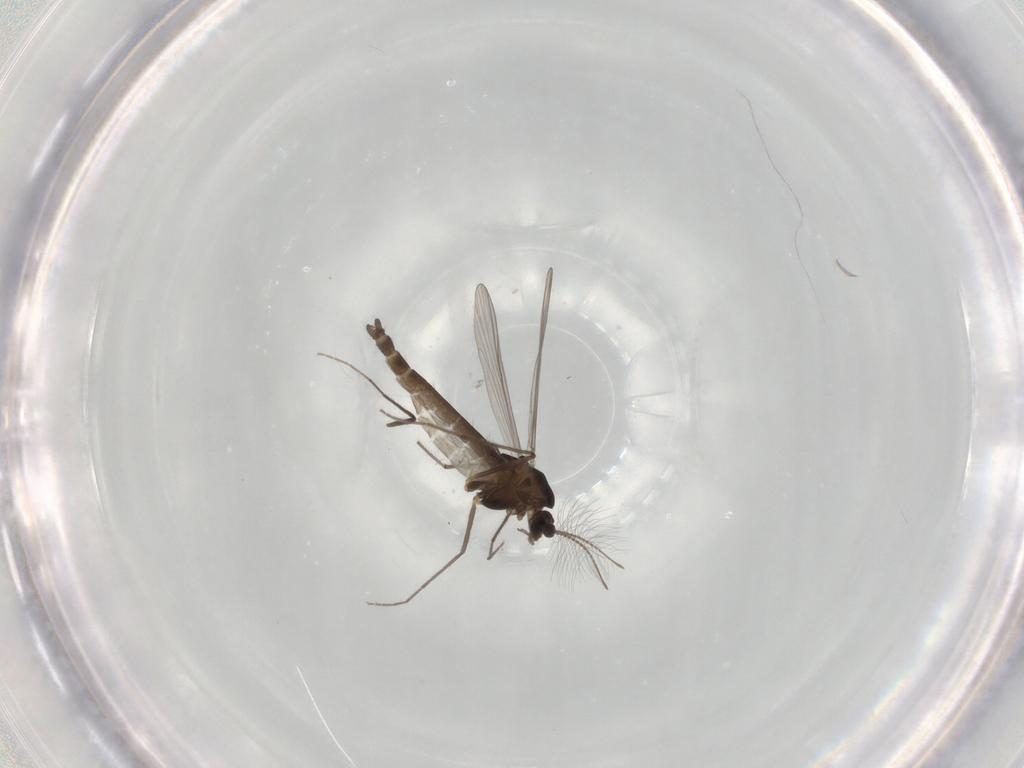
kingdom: Animalia
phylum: Arthropoda
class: Insecta
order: Diptera
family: Chironomidae
